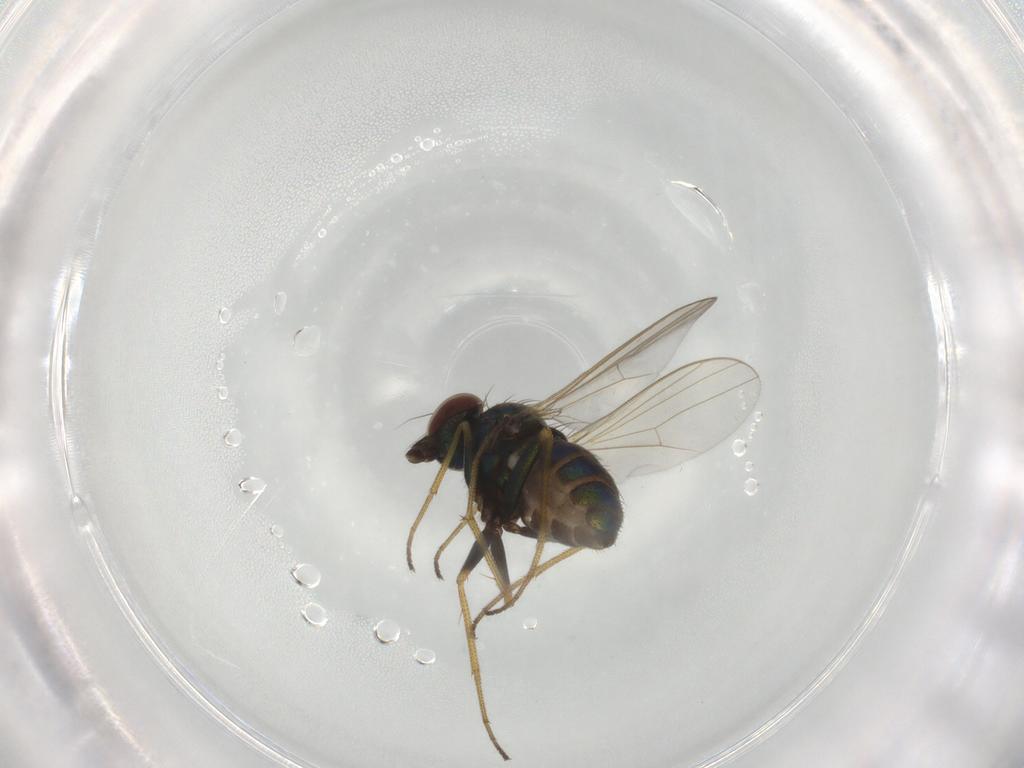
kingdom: Animalia
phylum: Arthropoda
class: Insecta
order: Diptera
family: Dolichopodidae
